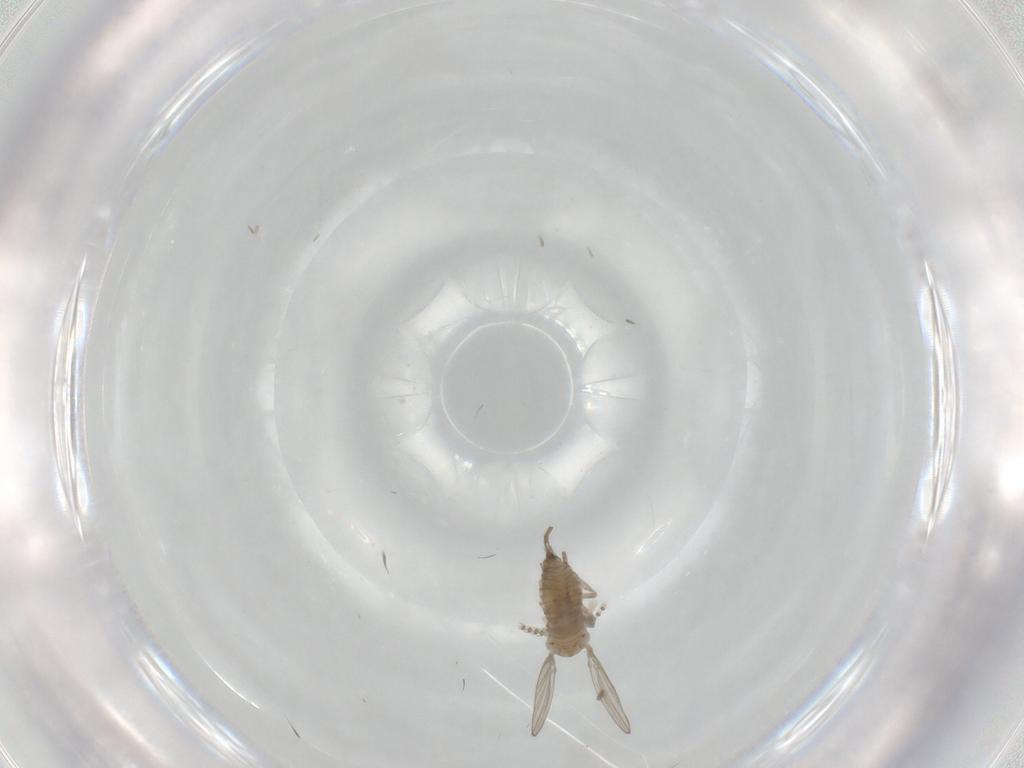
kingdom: Animalia
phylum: Arthropoda
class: Insecta
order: Diptera
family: Psychodidae
